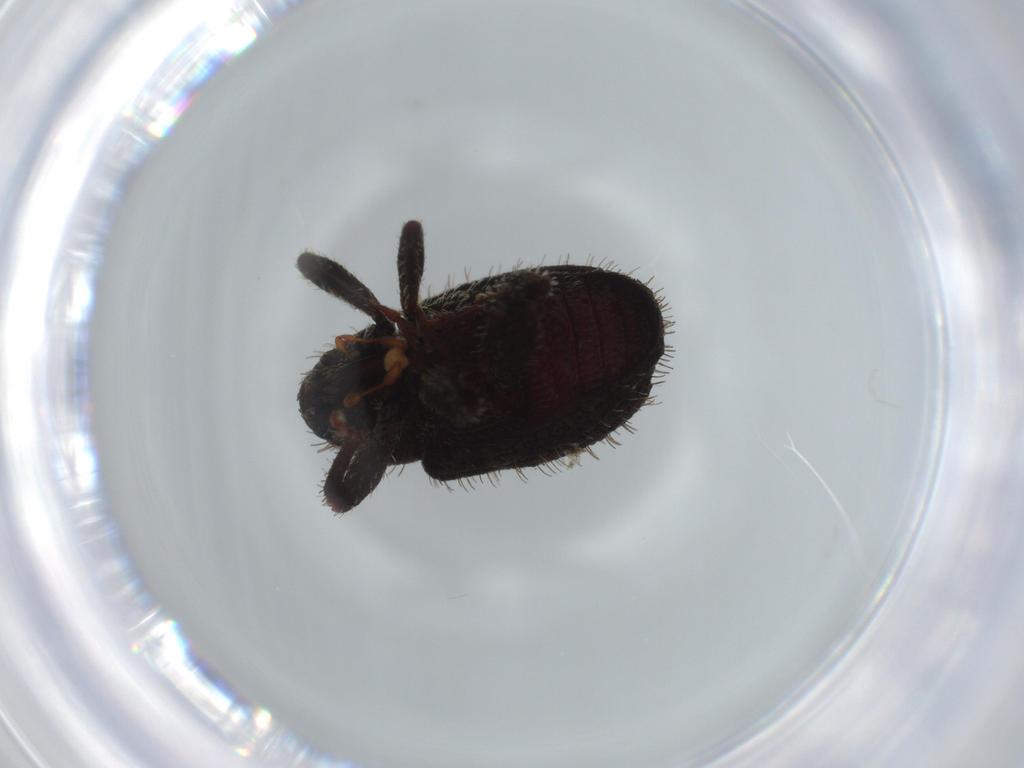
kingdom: Animalia
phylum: Arthropoda
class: Insecta
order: Coleoptera
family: Curculionidae
